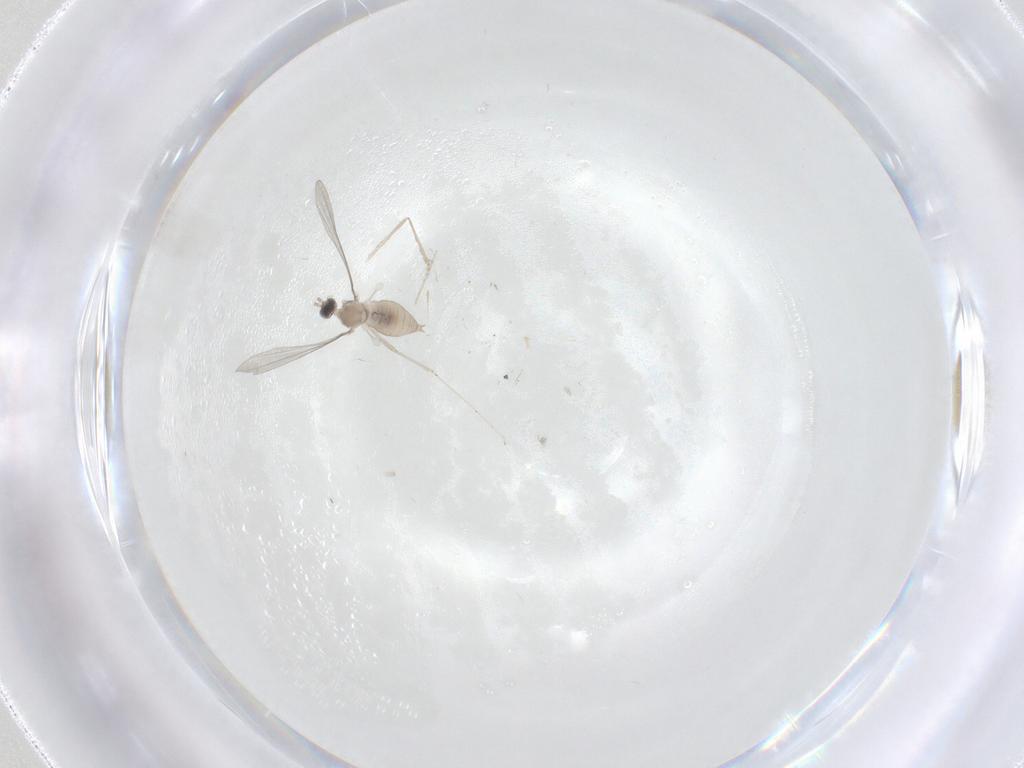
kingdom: Animalia
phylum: Arthropoda
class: Insecta
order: Diptera
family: Cecidomyiidae
